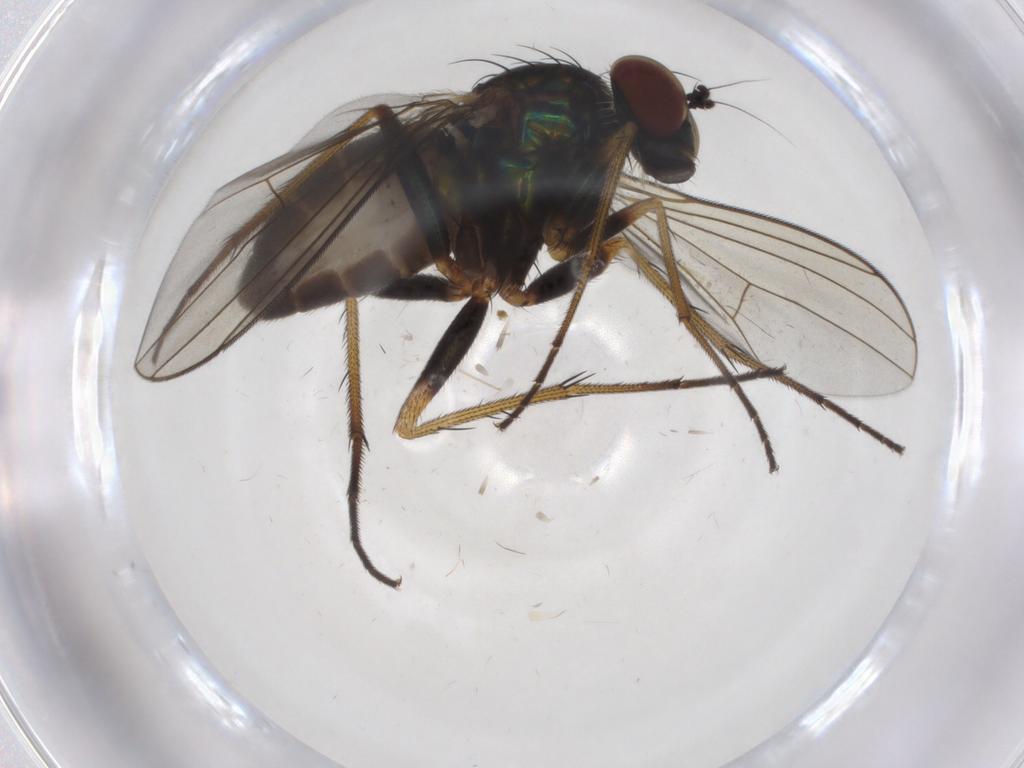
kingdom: Animalia
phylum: Arthropoda
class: Insecta
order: Diptera
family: Dolichopodidae
